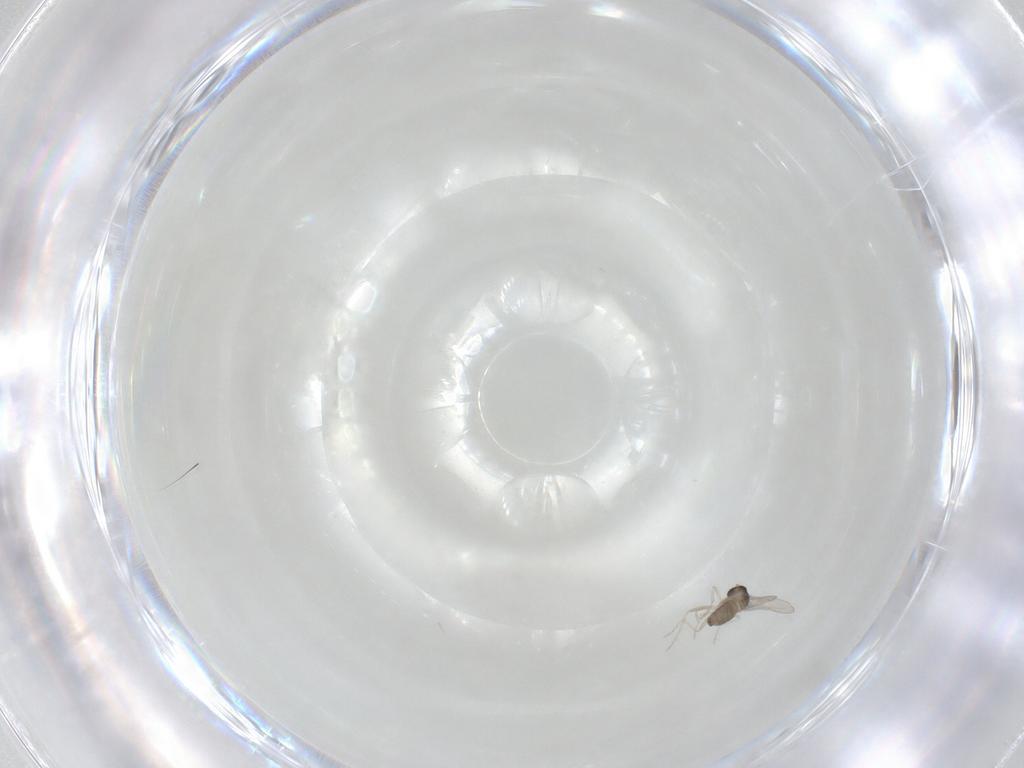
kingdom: Animalia
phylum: Arthropoda
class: Insecta
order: Diptera
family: Cecidomyiidae
